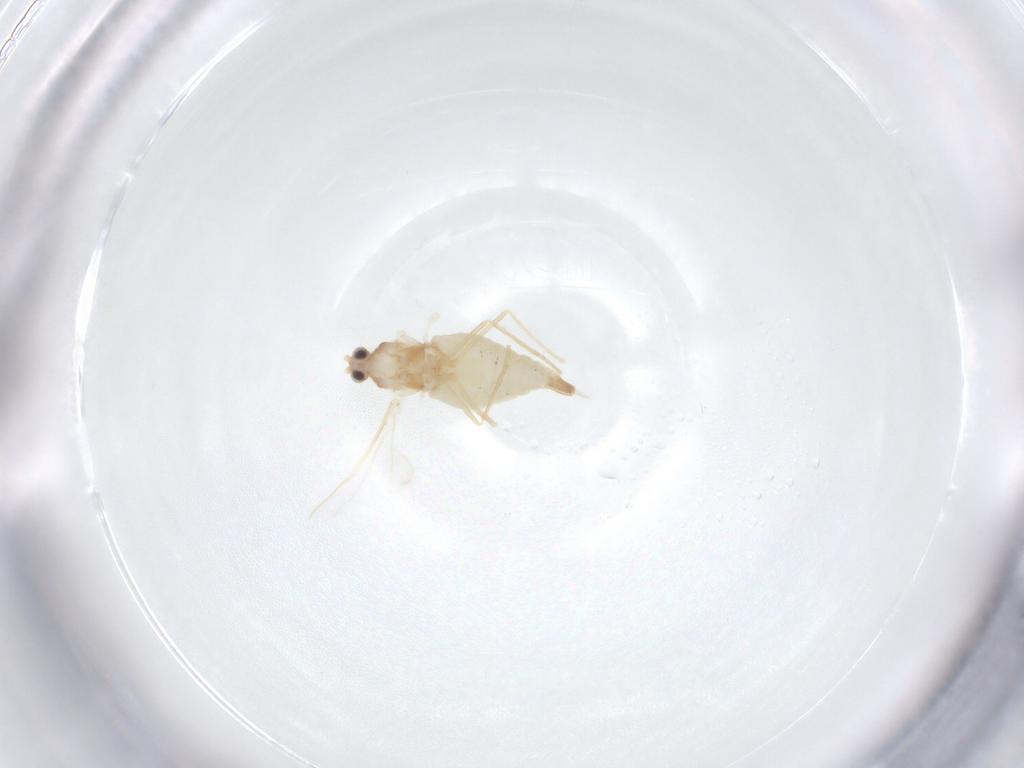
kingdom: Animalia
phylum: Arthropoda
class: Insecta
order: Diptera
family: Cecidomyiidae
